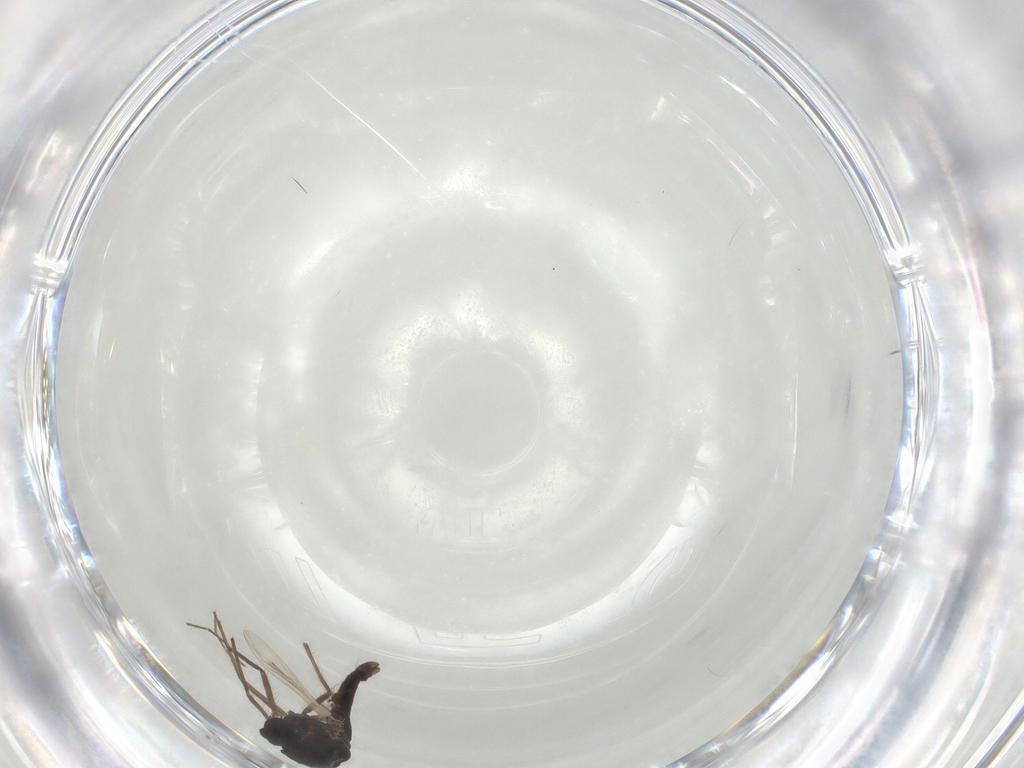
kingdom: Animalia
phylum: Arthropoda
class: Insecta
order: Diptera
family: Chironomidae
